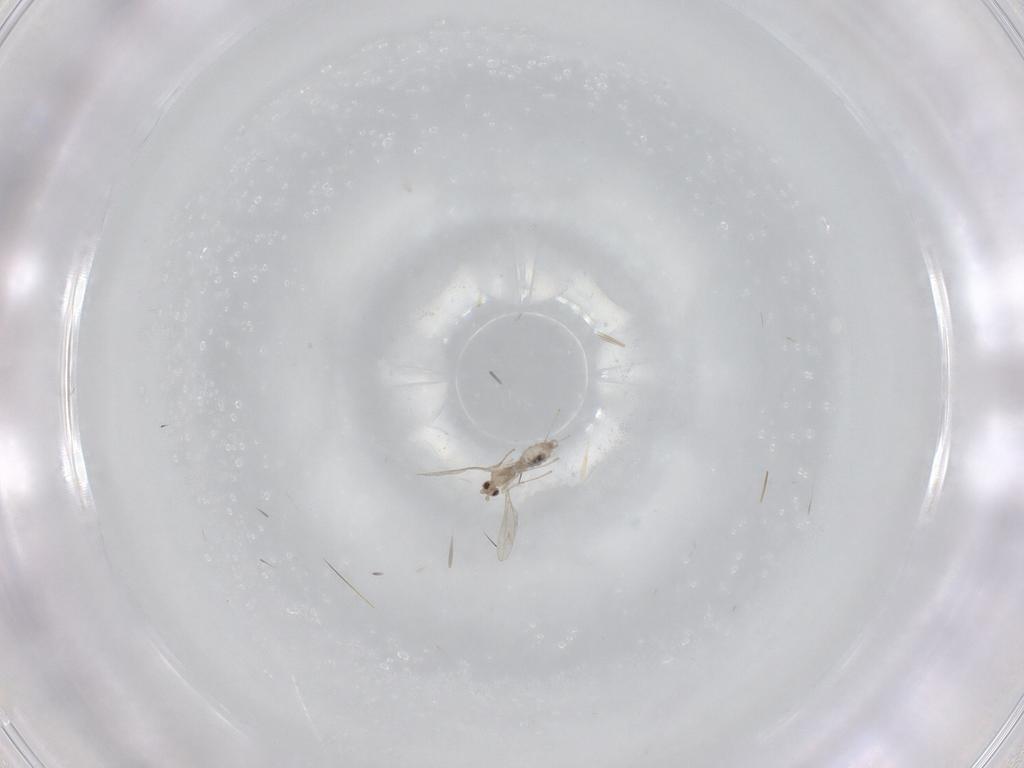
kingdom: Animalia
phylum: Arthropoda
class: Insecta
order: Diptera
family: Cecidomyiidae
